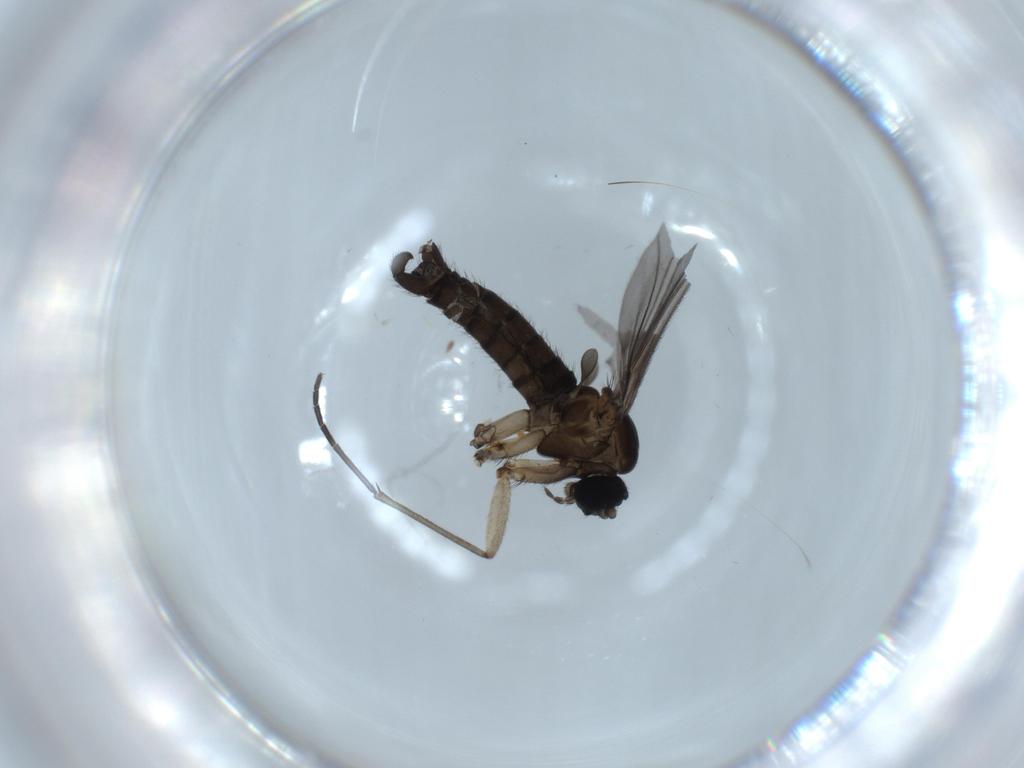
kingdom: Animalia
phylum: Arthropoda
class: Insecta
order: Diptera
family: Sciaridae
